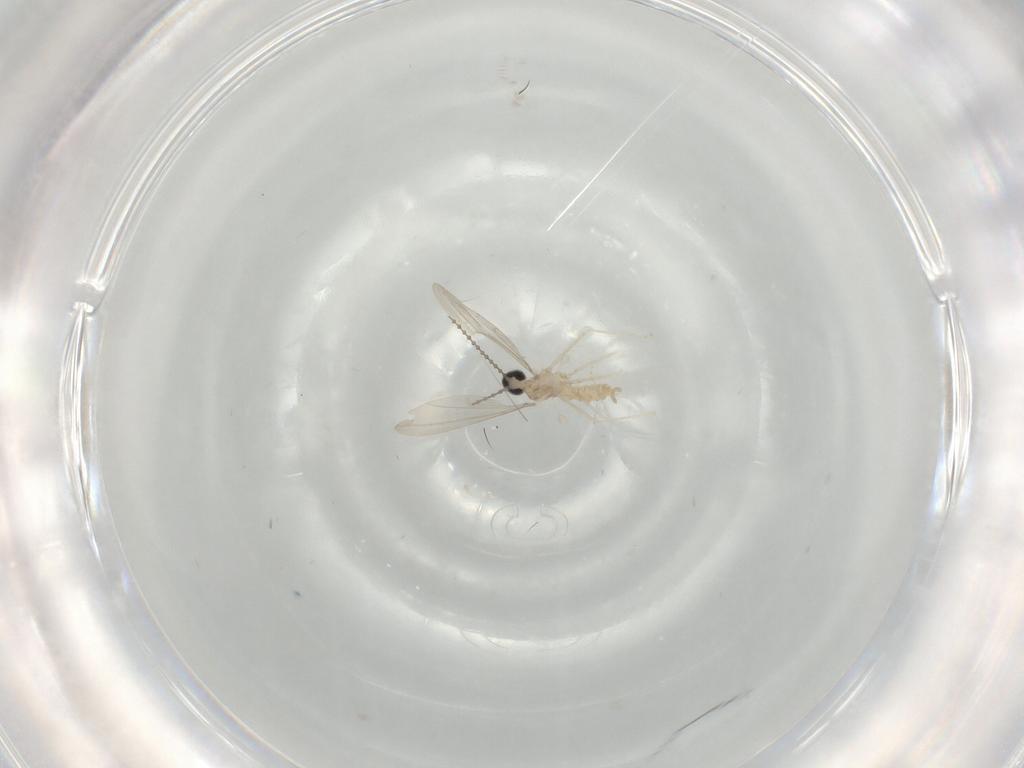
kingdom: Animalia
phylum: Arthropoda
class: Insecta
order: Diptera
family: Cecidomyiidae
